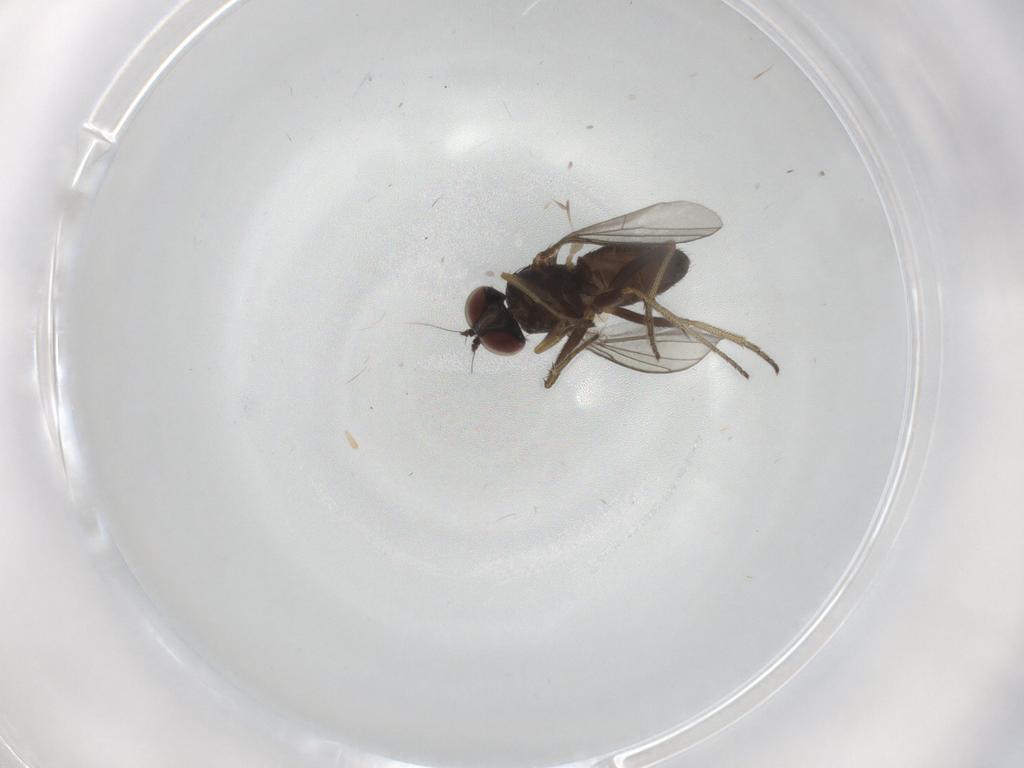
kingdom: Animalia
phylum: Arthropoda
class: Insecta
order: Diptera
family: Dolichopodidae
